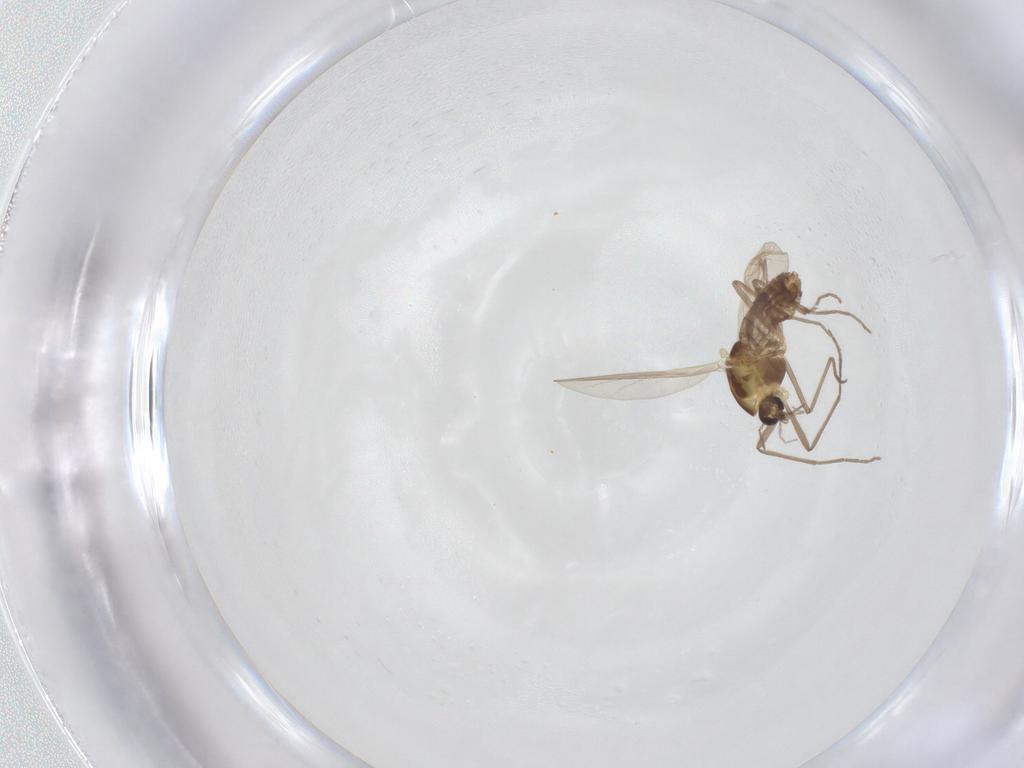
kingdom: Animalia
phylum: Arthropoda
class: Insecta
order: Diptera
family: Chironomidae
